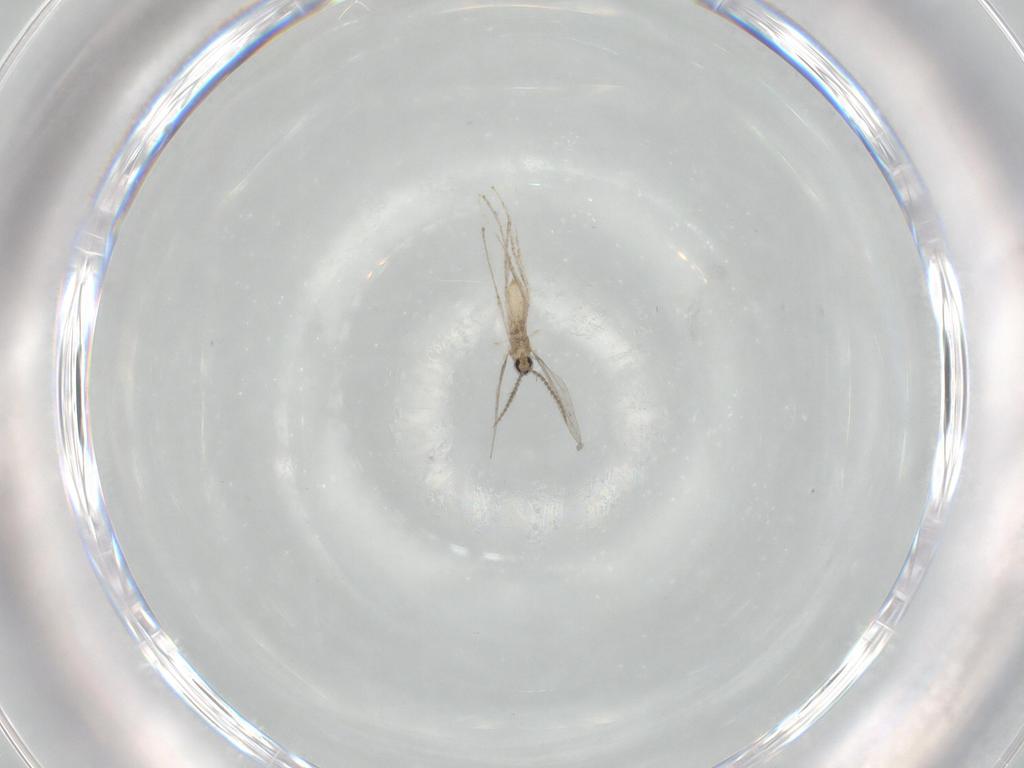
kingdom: Animalia
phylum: Arthropoda
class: Insecta
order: Diptera
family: Cecidomyiidae
